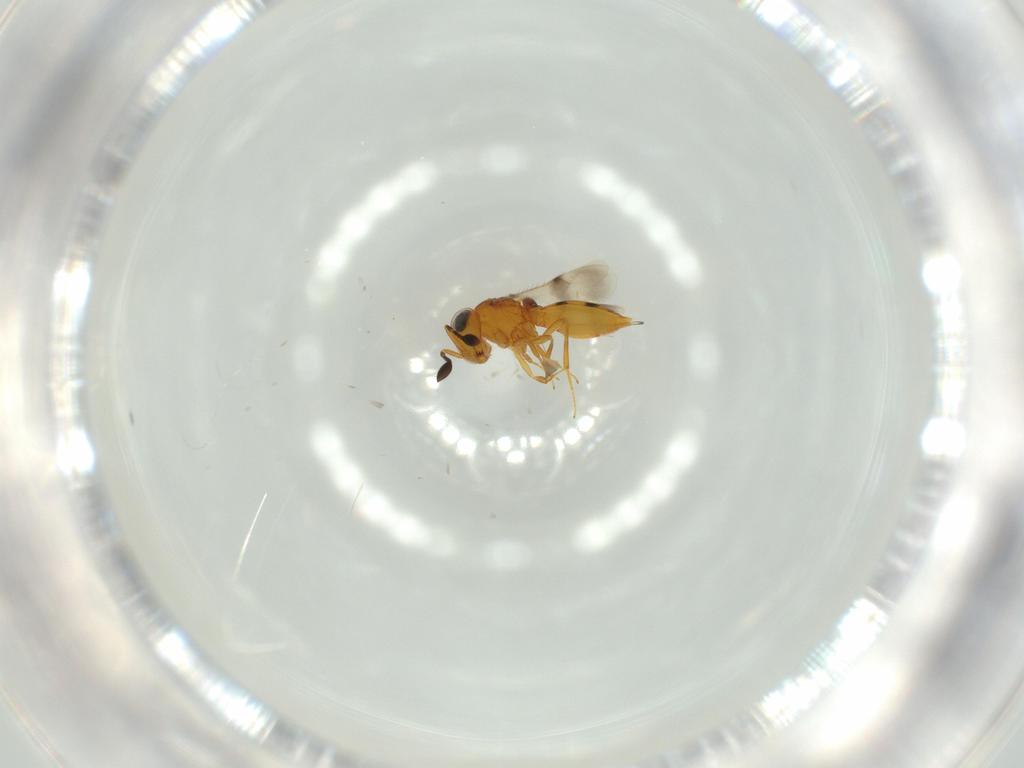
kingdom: Animalia
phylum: Arthropoda
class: Insecta
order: Hymenoptera
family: Scelionidae
